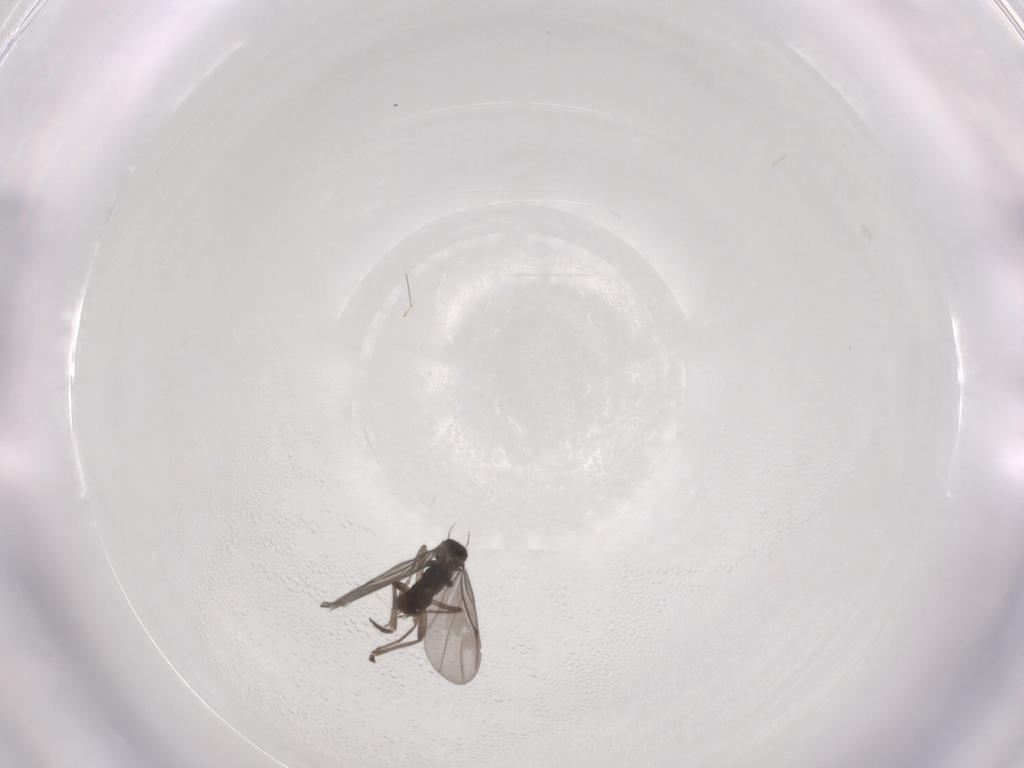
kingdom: Animalia
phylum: Arthropoda
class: Insecta
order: Diptera
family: Phoridae
